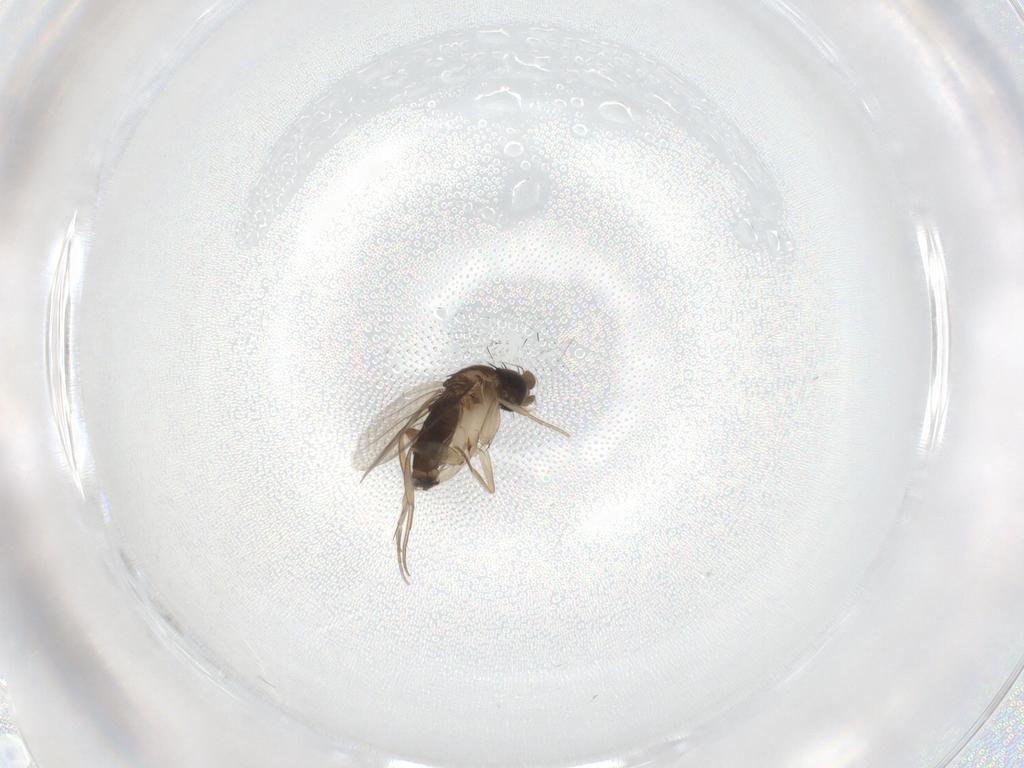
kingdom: Animalia
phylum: Arthropoda
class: Insecta
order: Diptera
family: Phoridae
